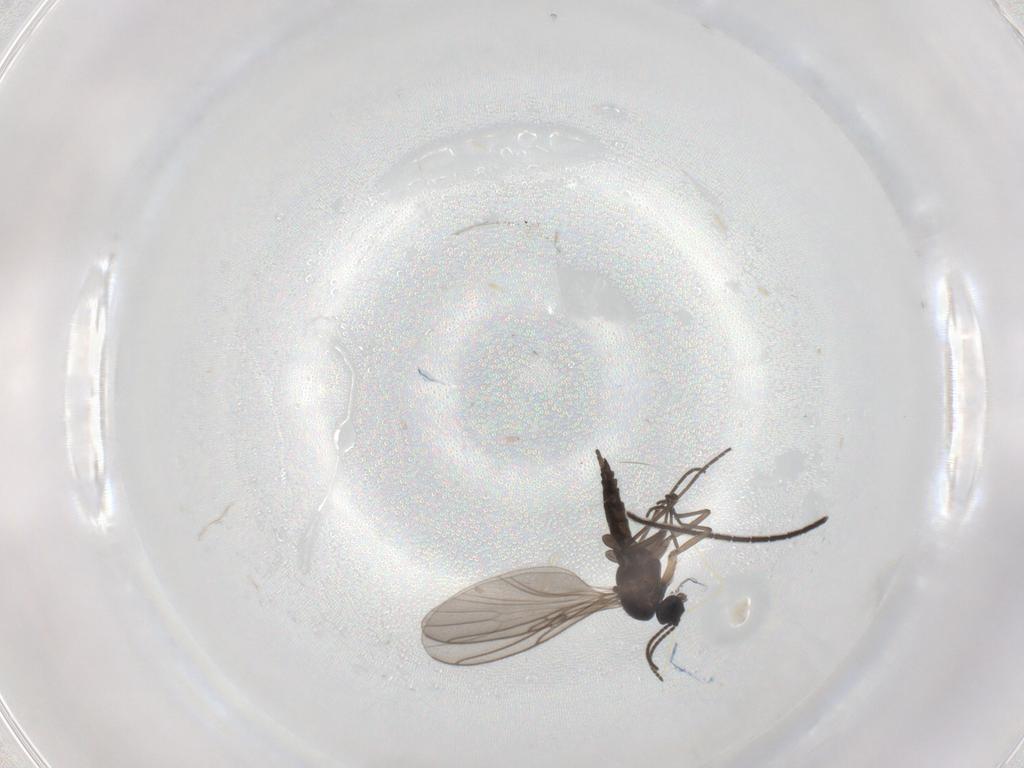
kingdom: Animalia
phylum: Arthropoda
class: Insecta
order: Diptera
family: Sciaridae
